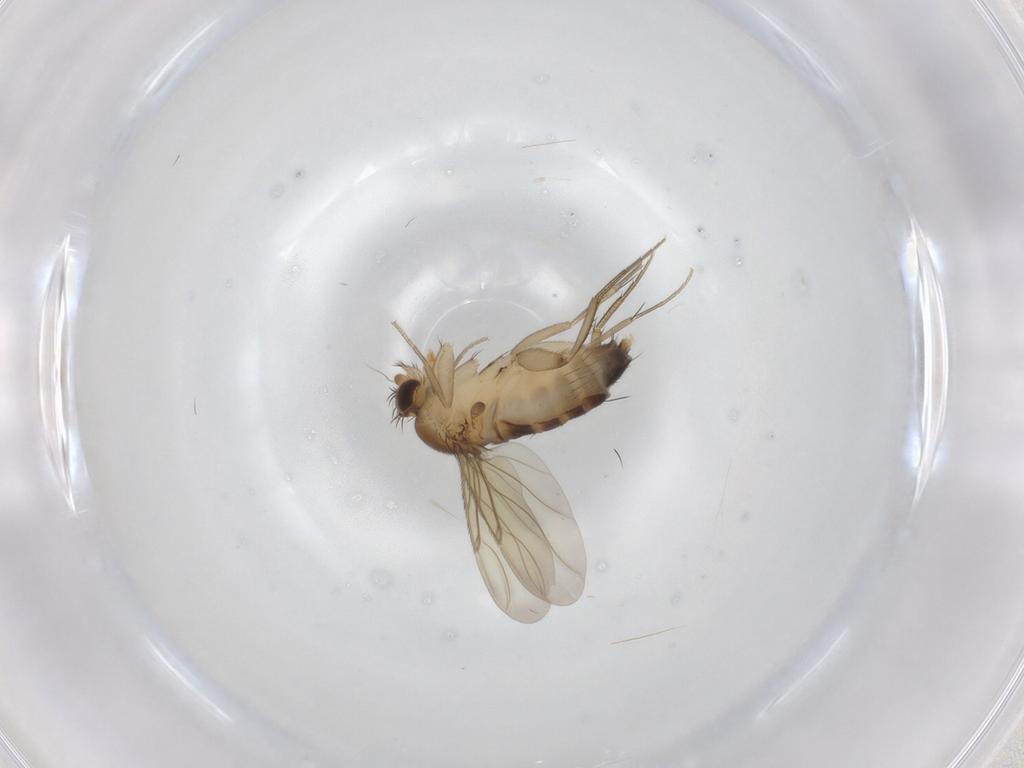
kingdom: Animalia
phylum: Arthropoda
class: Insecta
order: Diptera
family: Phoridae
